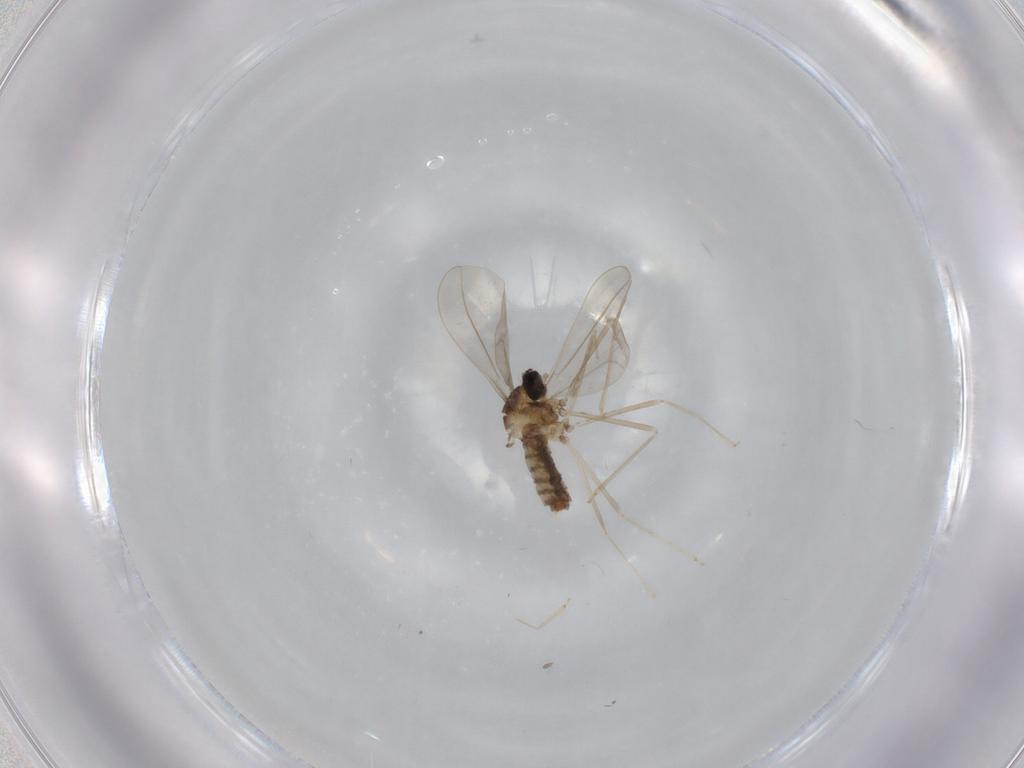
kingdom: Animalia
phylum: Arthropoda
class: Insecta
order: Diptera
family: Cecidomyiidae
